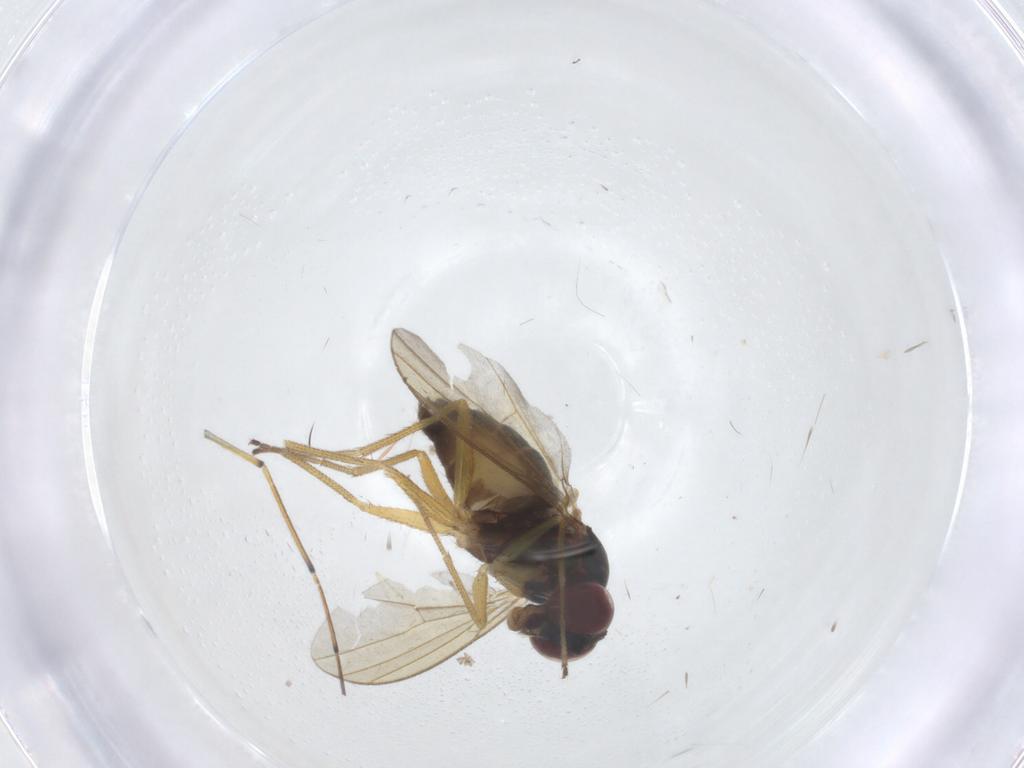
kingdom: Animalia
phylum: Arthropoda
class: Insecta
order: Diptera
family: Dolichopodidae
